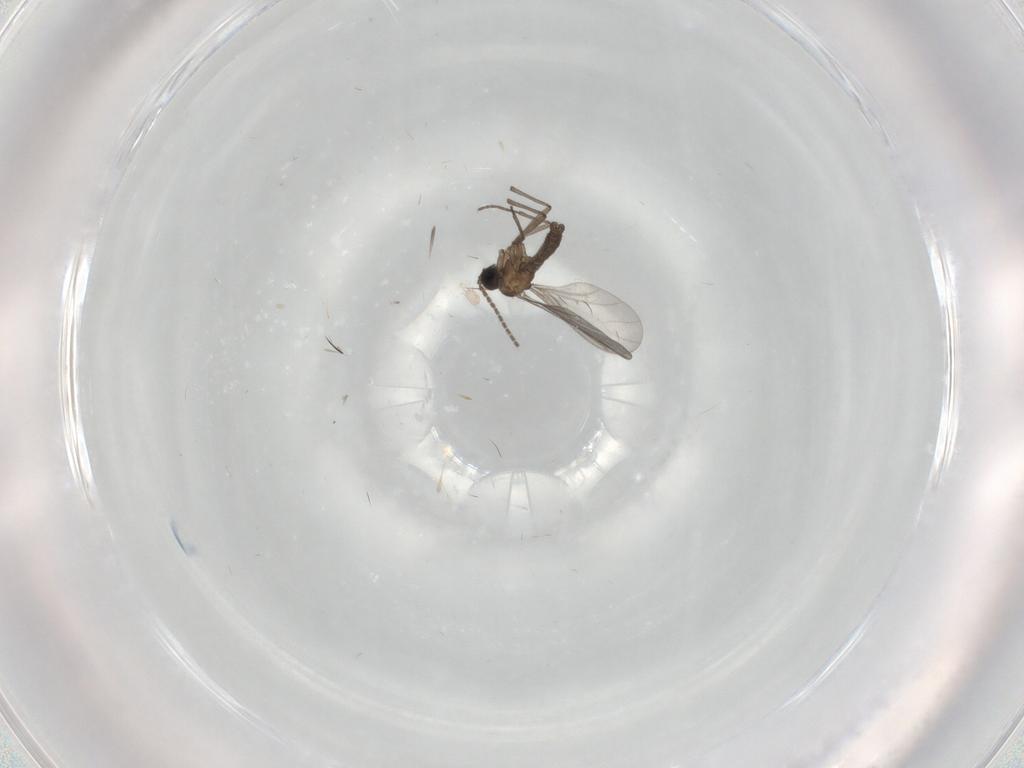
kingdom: Animalia
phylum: Arthropoda
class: Insecta
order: Diptera
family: Sciaridae
